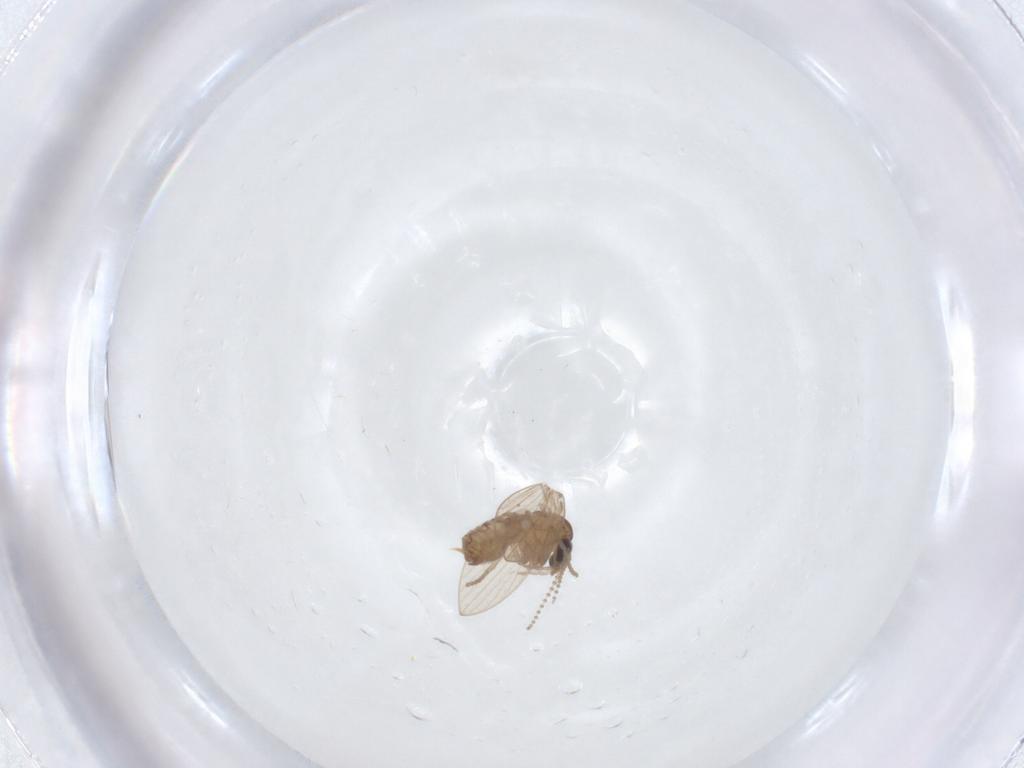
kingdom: Animalia
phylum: Arthropoda
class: Insecta
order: Diptera
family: Psychodidae
